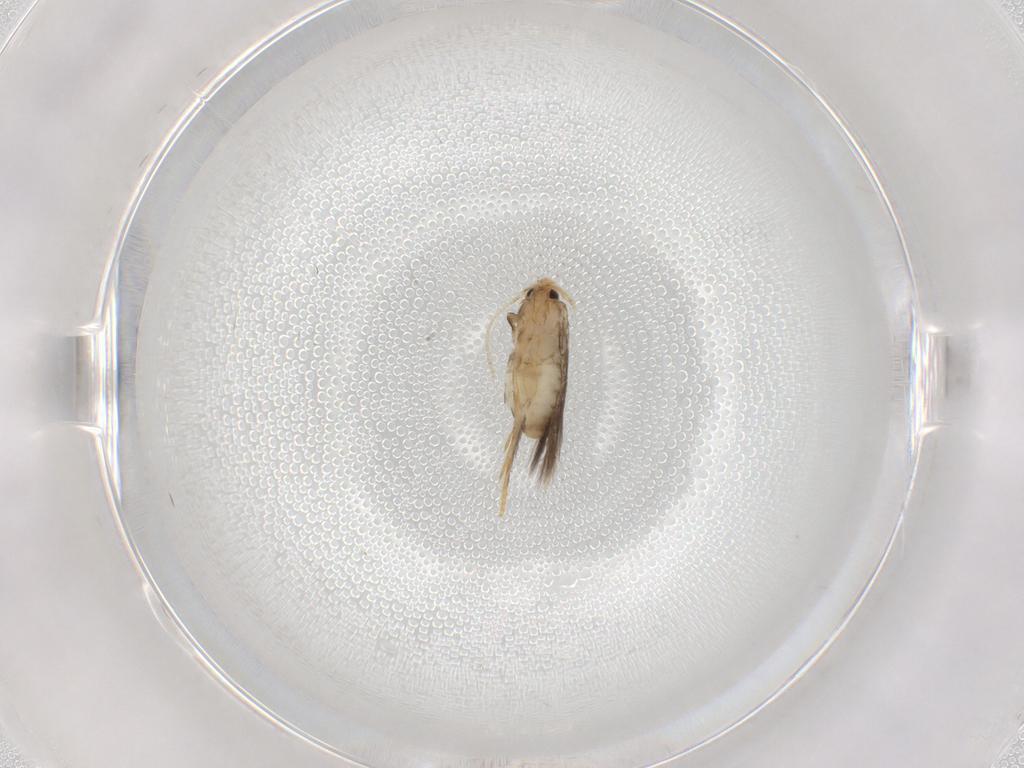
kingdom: Animalia
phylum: Arthropoda
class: Insecta
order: Lepidoptera
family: Nepticulidae
